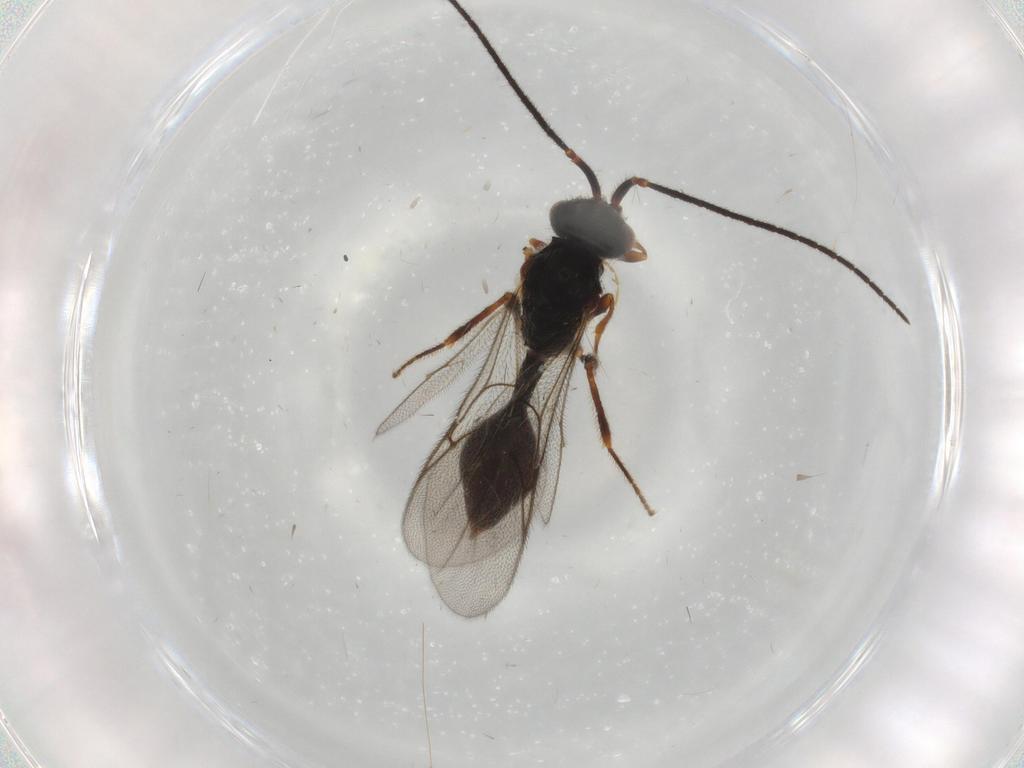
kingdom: Animalia
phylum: Arthropoda
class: Insecta
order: Hymenoptera
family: Diapriidae
